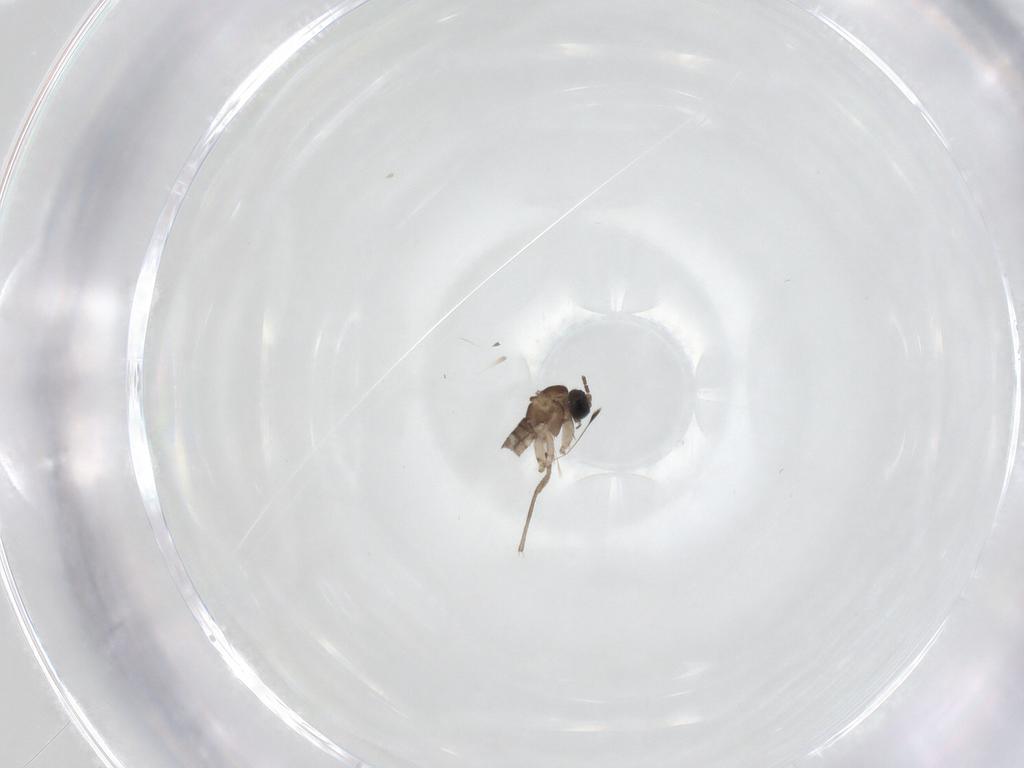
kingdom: Animalia
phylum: Arthropoda
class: Insecta
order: Diptera
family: Sciaridae
